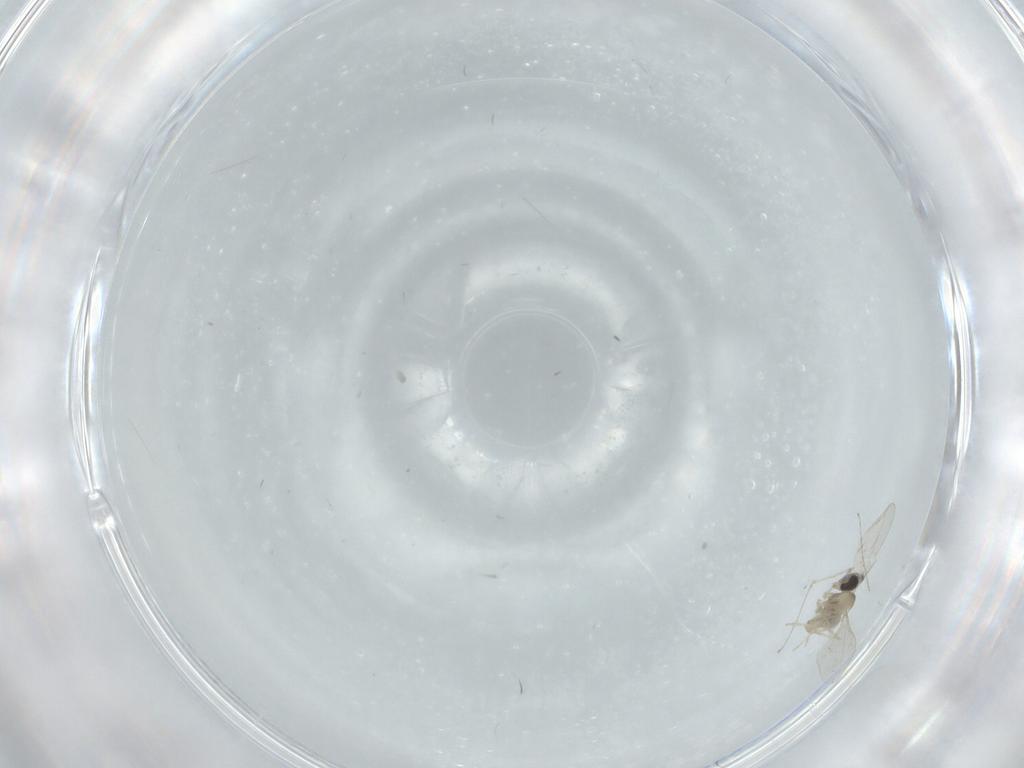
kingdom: Animalia
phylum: Arthropoda
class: Insecta
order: Diptera
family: Cecidomyiidae
